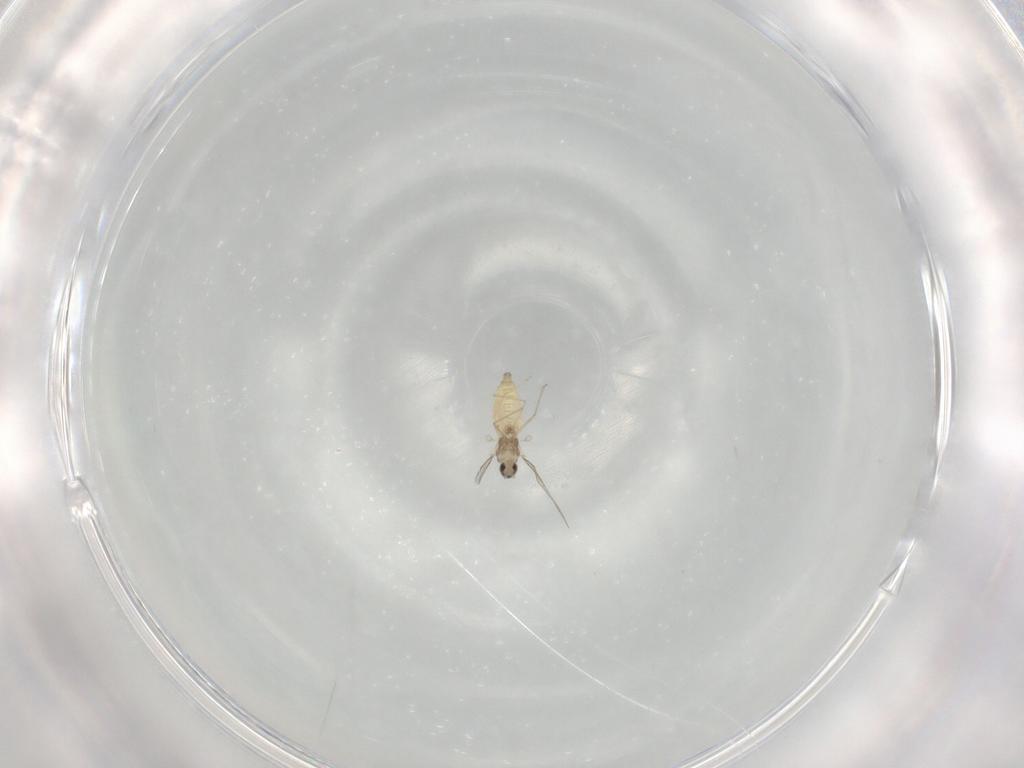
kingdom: Animalia
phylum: Arthropoda
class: Insecta
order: Diptera
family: Cecidomyiidae
